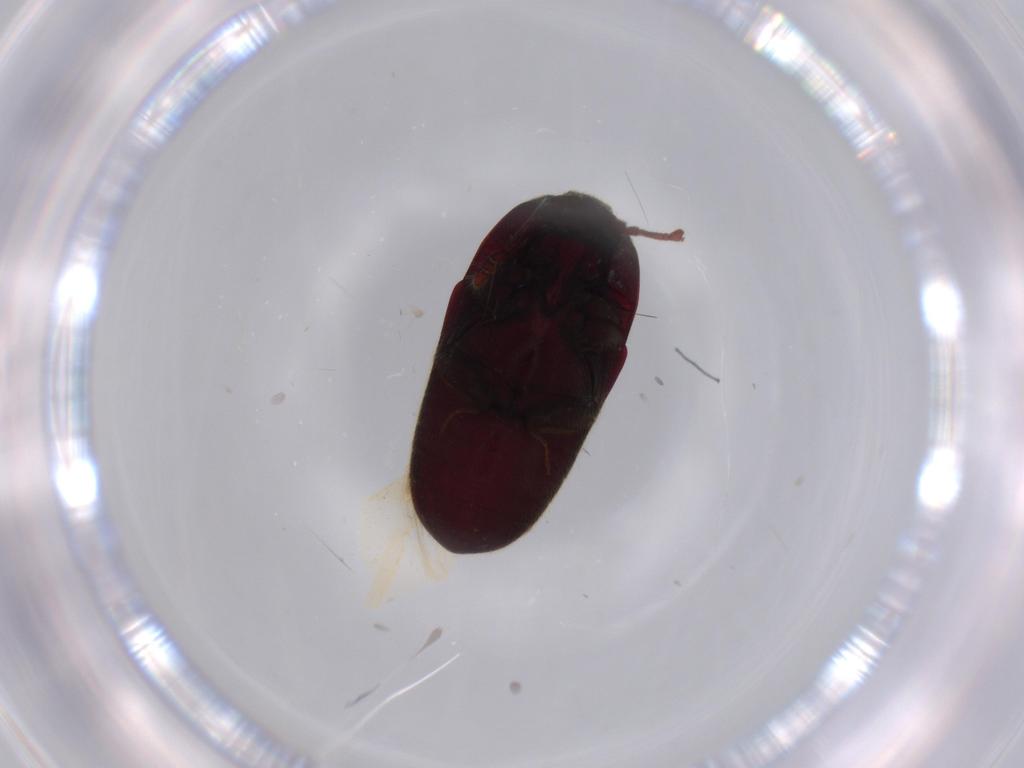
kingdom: Animalia
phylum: Arthropoda
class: Insecta
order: Coleoptera
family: Throscidae
